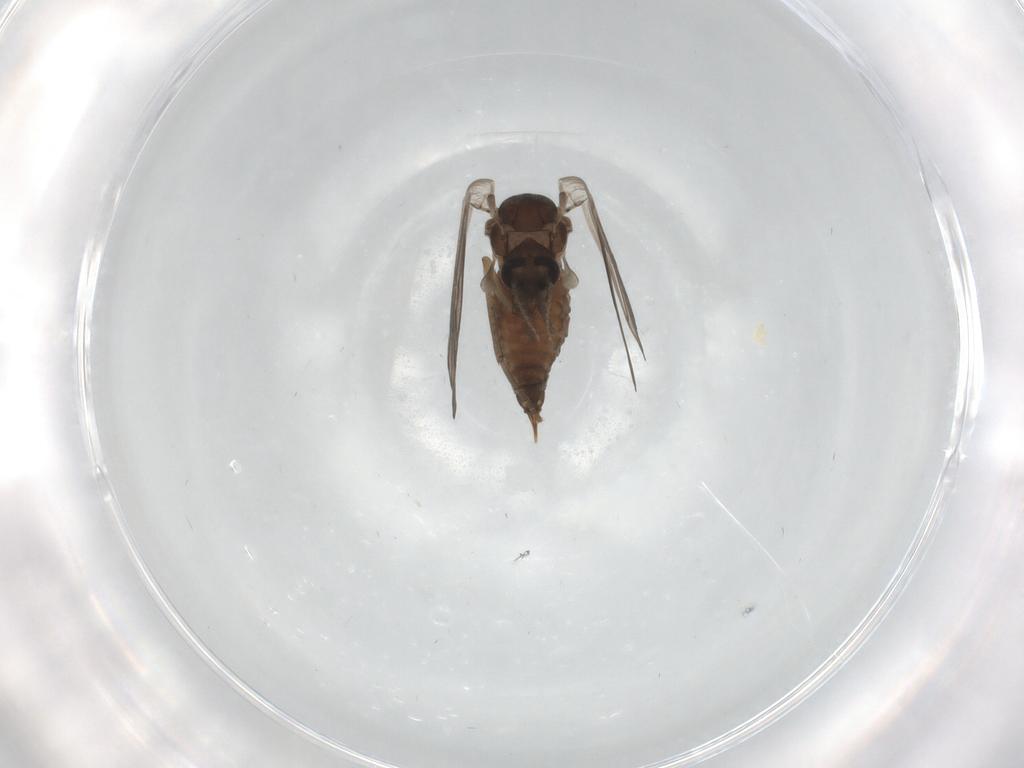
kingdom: Animalia
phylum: Arthropoda
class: Insecta
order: Diptera
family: Psychodidae
